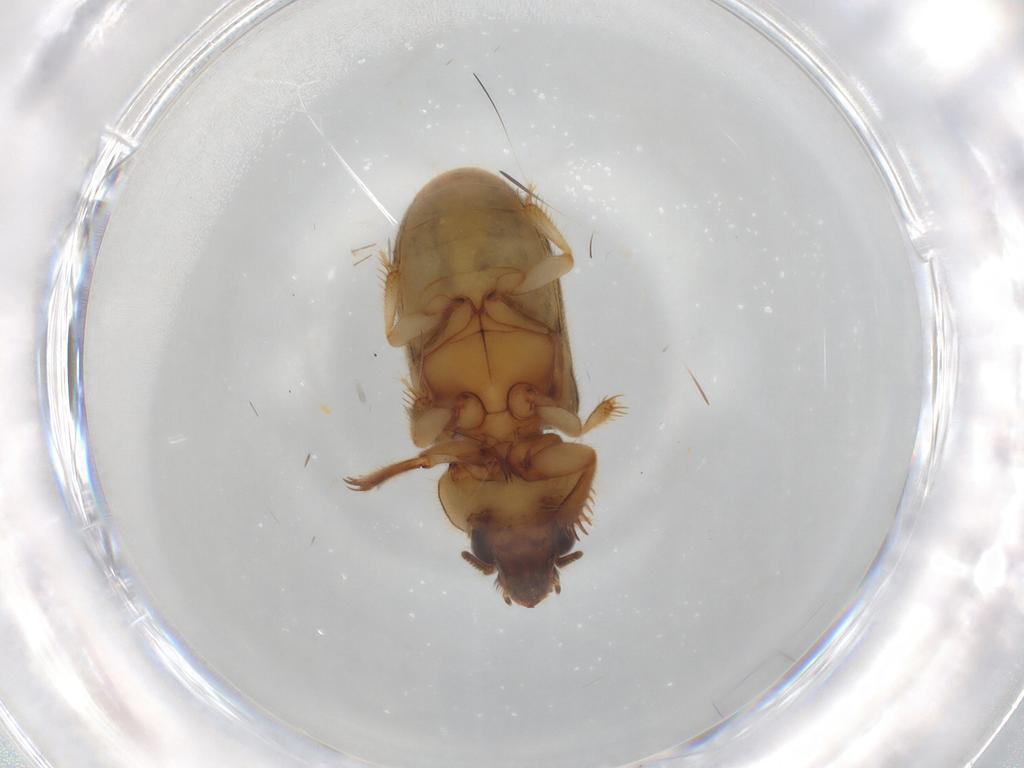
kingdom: Animalia
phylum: Arthropoda
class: Insecta
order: Coleoptera
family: Heteroceridae
